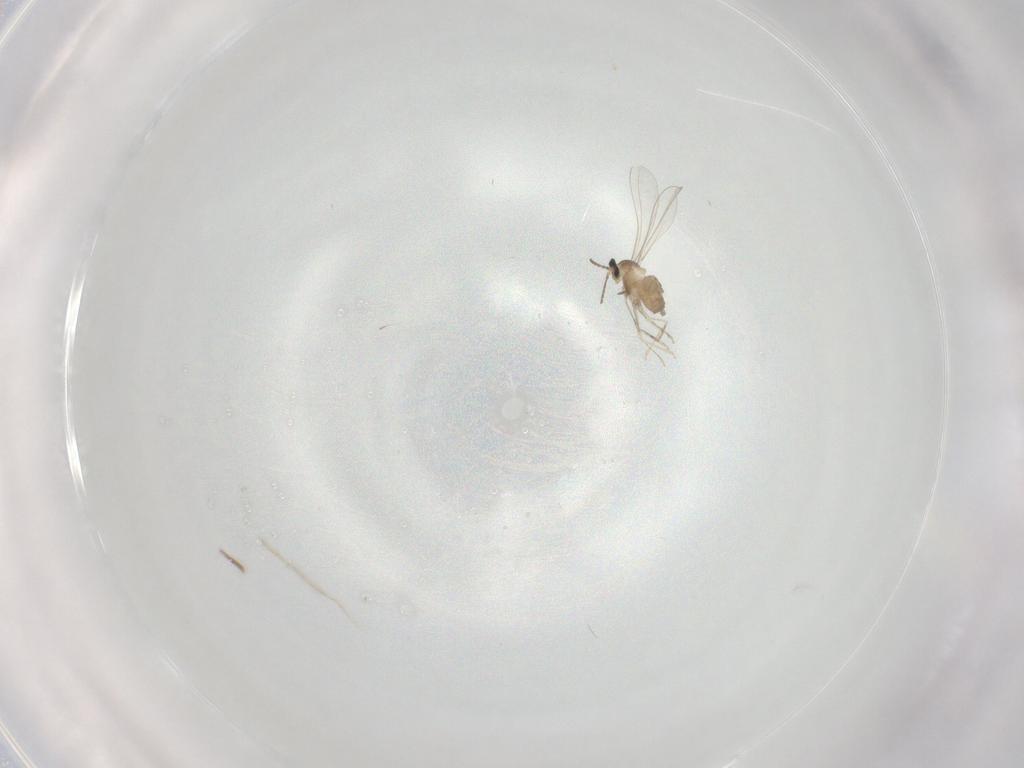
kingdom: Animalia
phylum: Arthropoda
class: Insecta
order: Diptera
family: Cecidomyiidae
